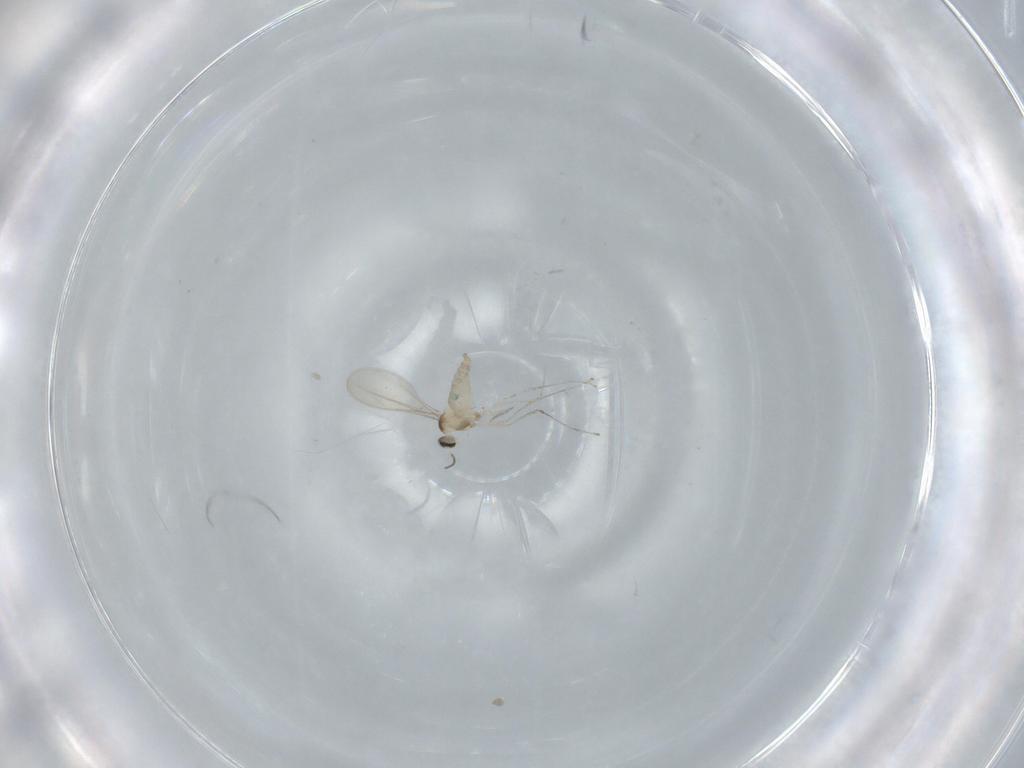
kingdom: Animalia
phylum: Arthropoda
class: Insecta
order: Diptera
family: Cecidomyiidae
